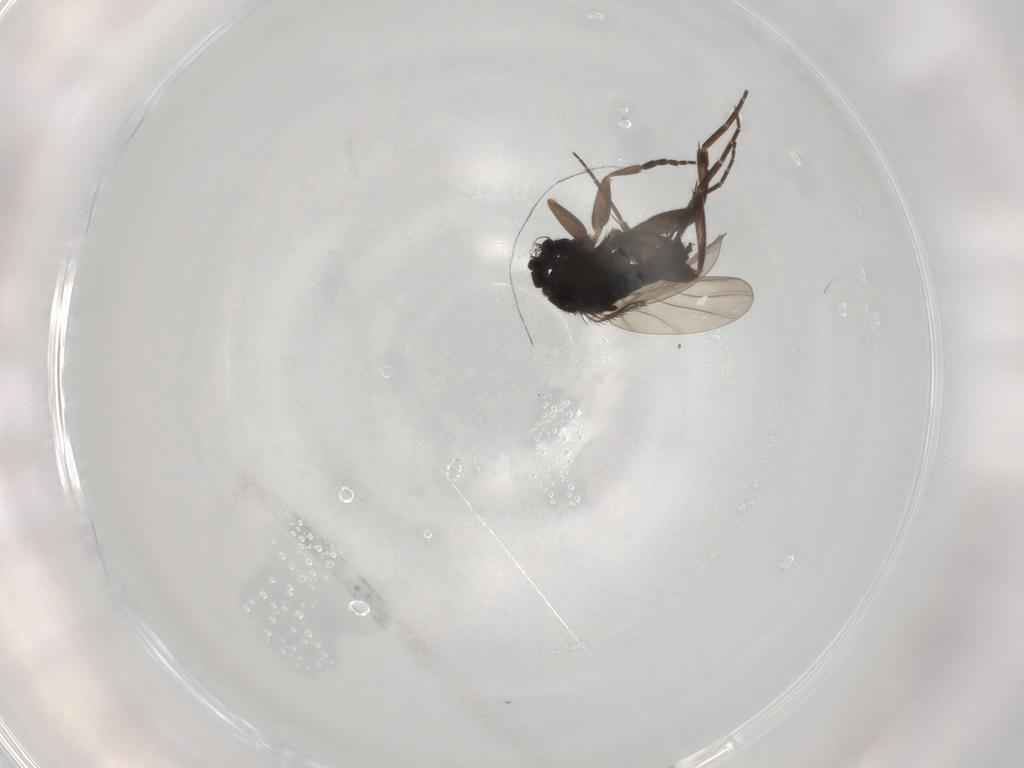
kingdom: Animalia
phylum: Arthropoda
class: Insecta
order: Diptera
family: Phoridae
